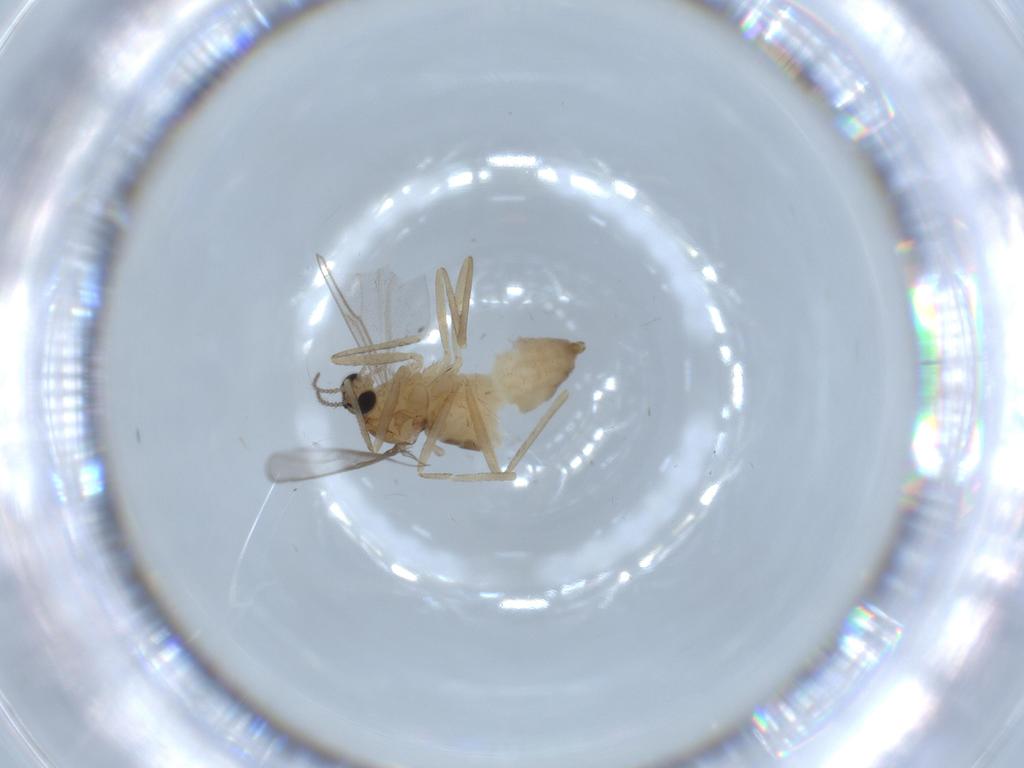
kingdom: Animalia
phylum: Arthropoda
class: Insecta
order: Diptera
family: Cecidomyiidae
